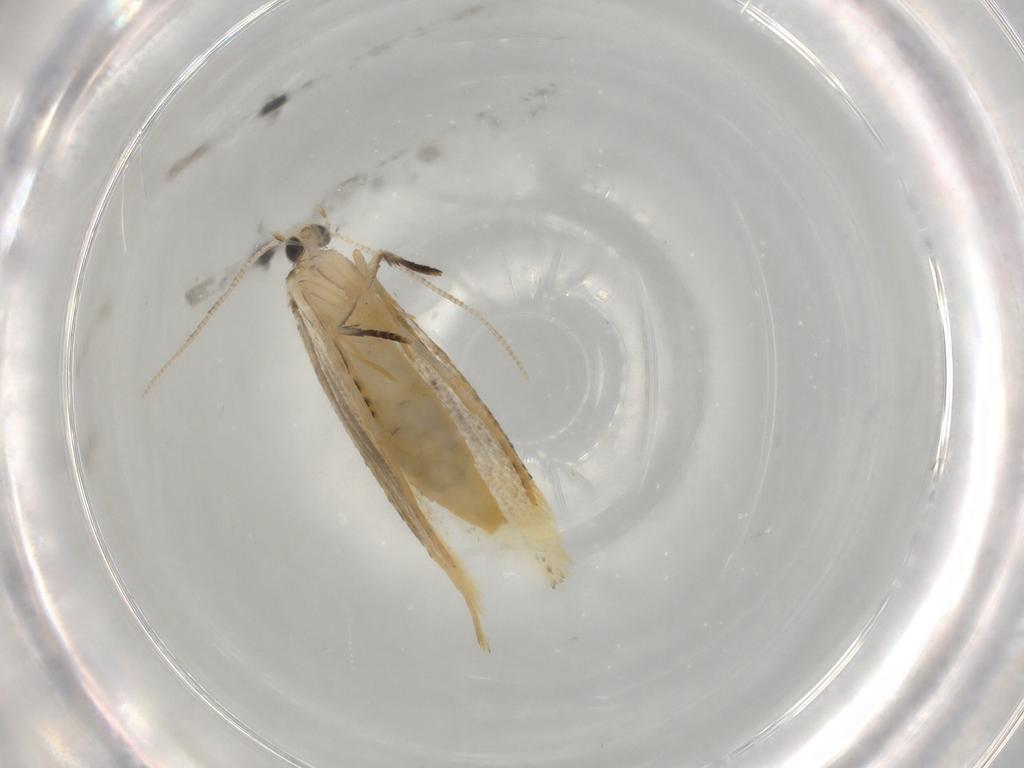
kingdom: Animalia
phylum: Arthropoda
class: Insecta
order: Lepidoptera
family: Tineidae
